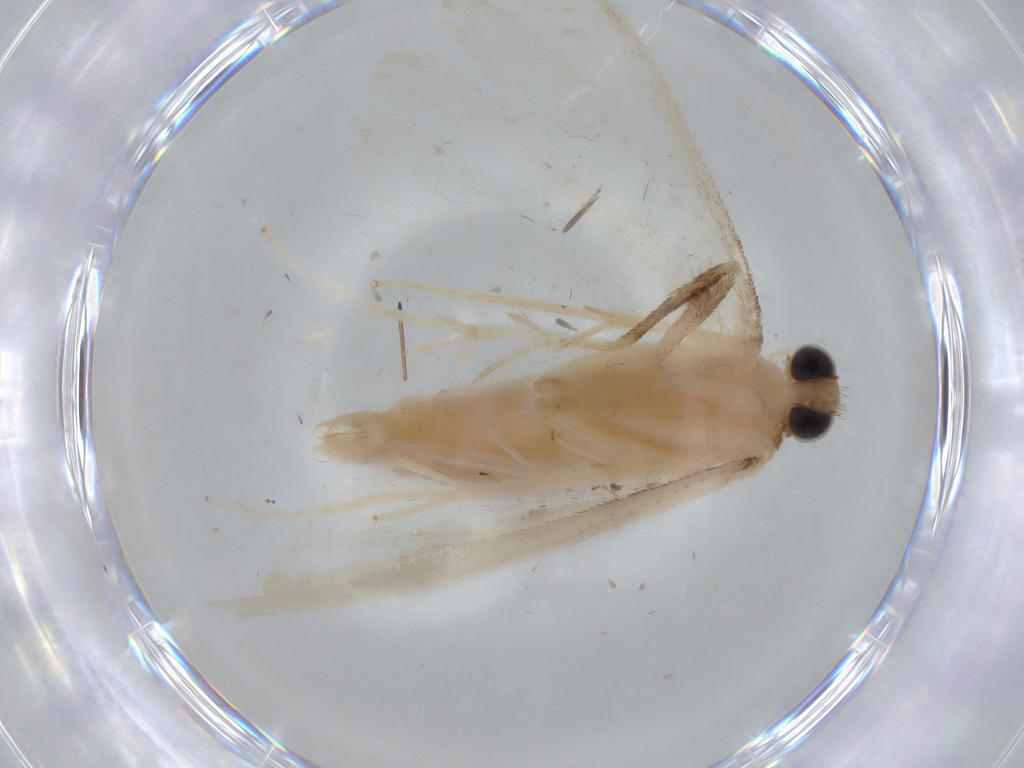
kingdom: Animalia
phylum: Arthropoda
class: Insecta
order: Lepidoptera
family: Crambidae
